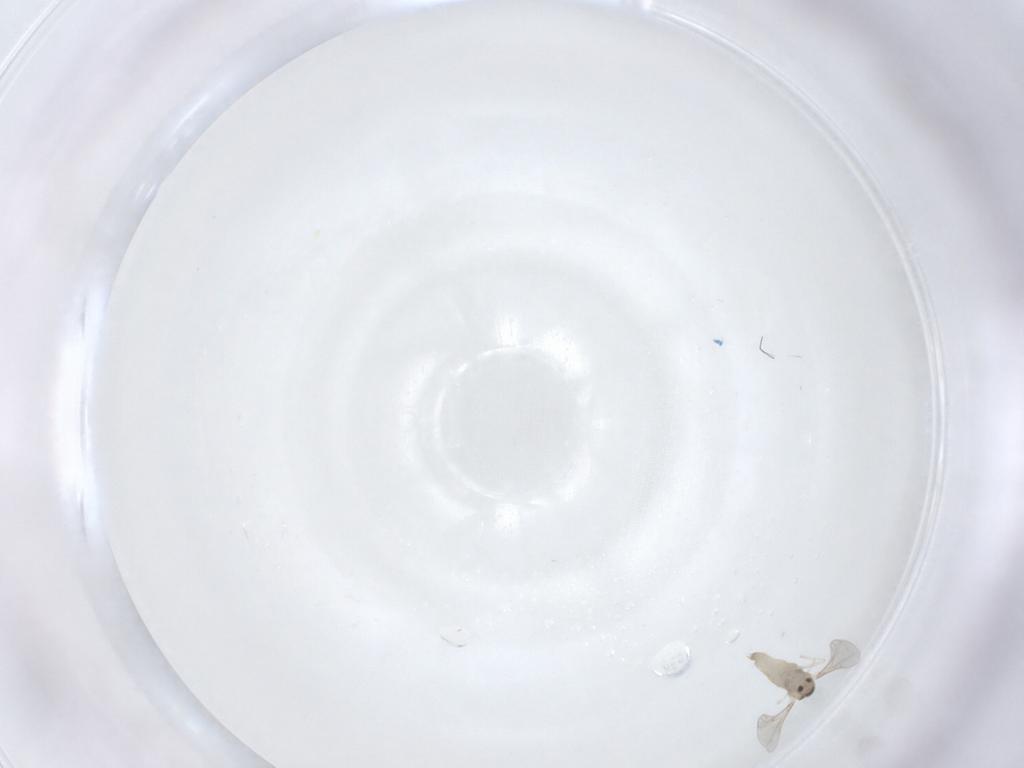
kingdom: Animalia
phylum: Arthropoda
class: Insecta
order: Diptera
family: Cecidomyiidae
